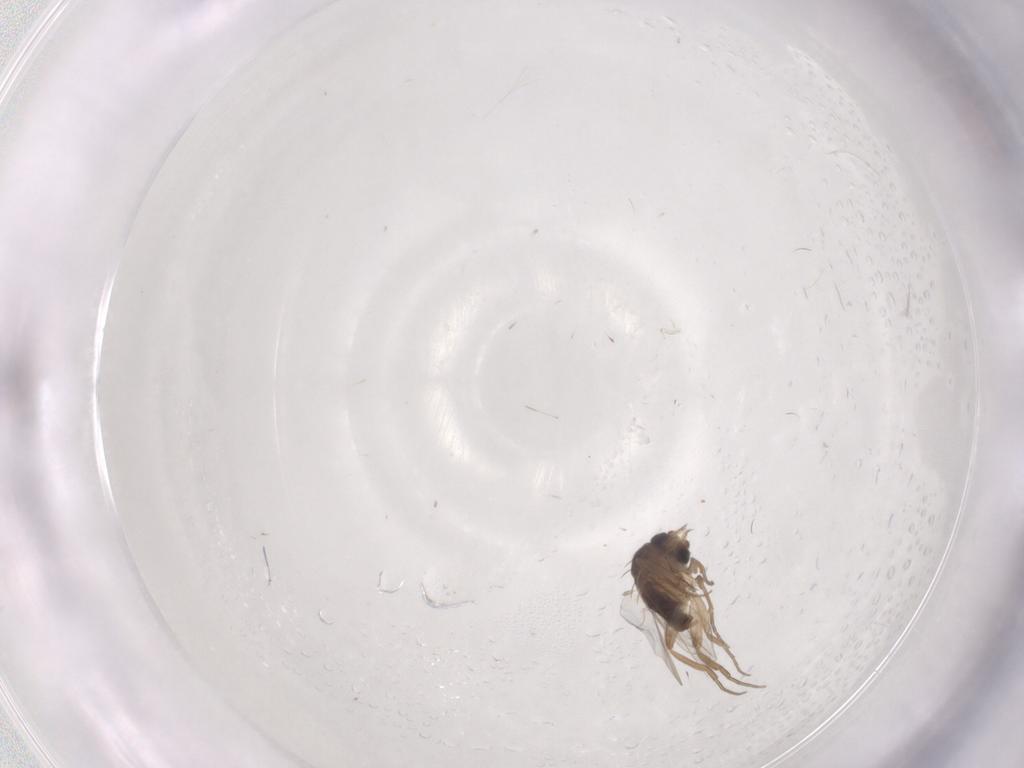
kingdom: Animalia
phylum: Arthropoda
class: Insecta
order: Diptera
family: Phoridae
